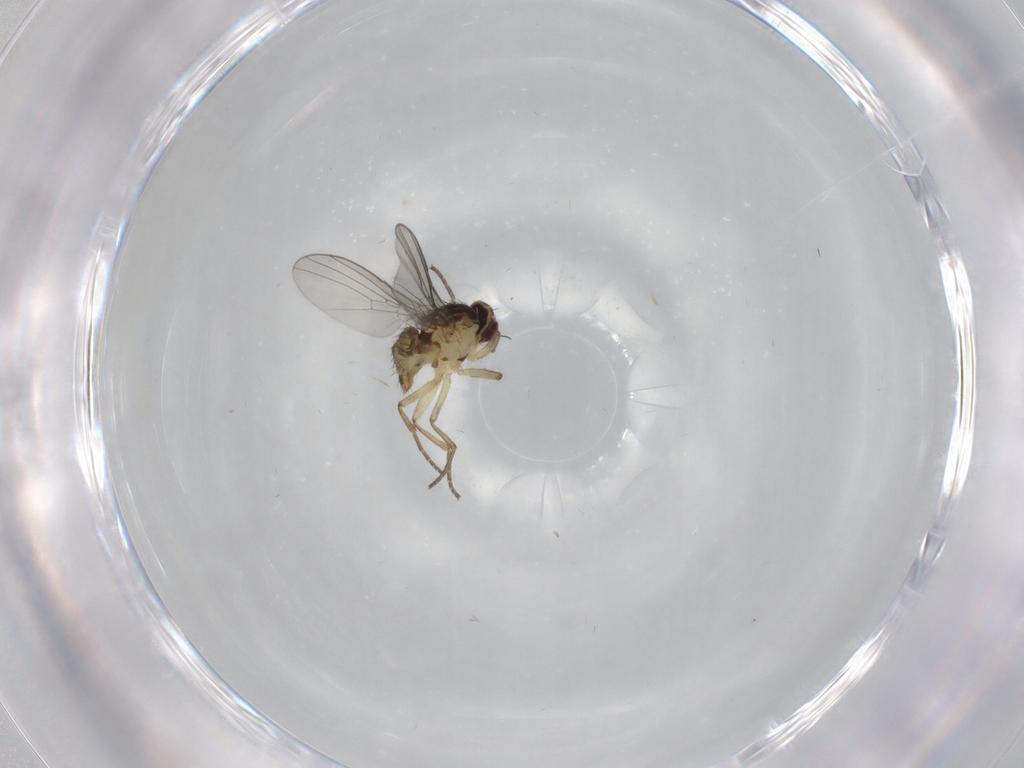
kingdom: Animalia
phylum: Arthropoda
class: Insecta
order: Diptera
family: Agromyzidae
